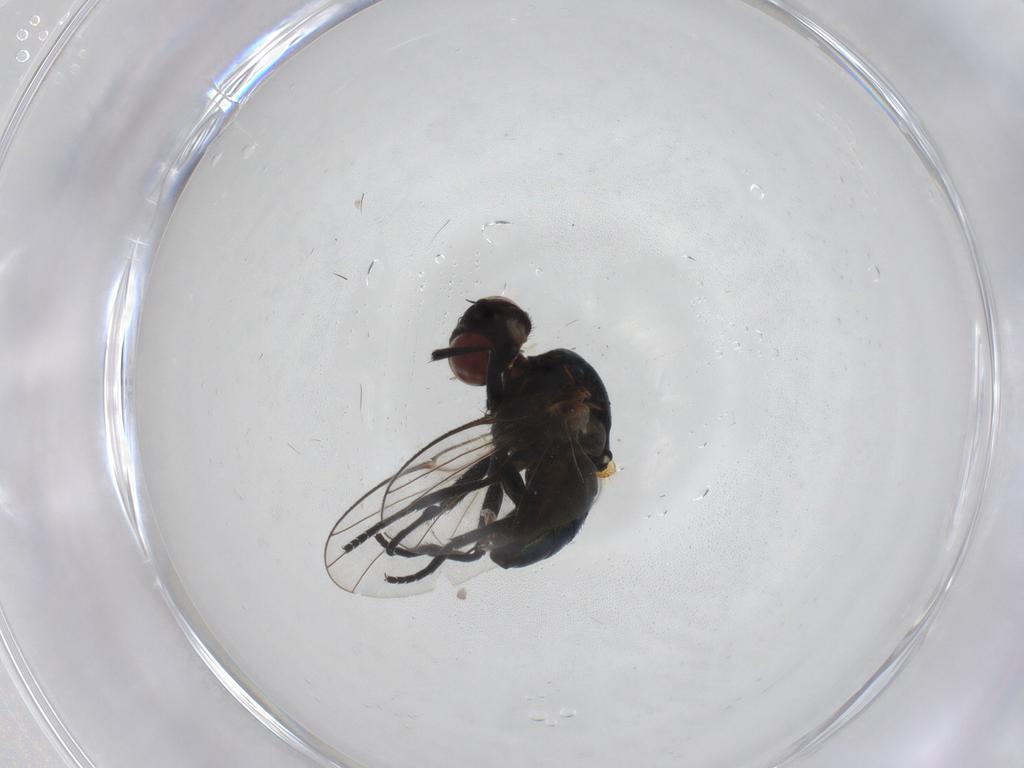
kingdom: Animalia
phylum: Arthropoda
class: Insecta
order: Diptera
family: Agromyzidae
